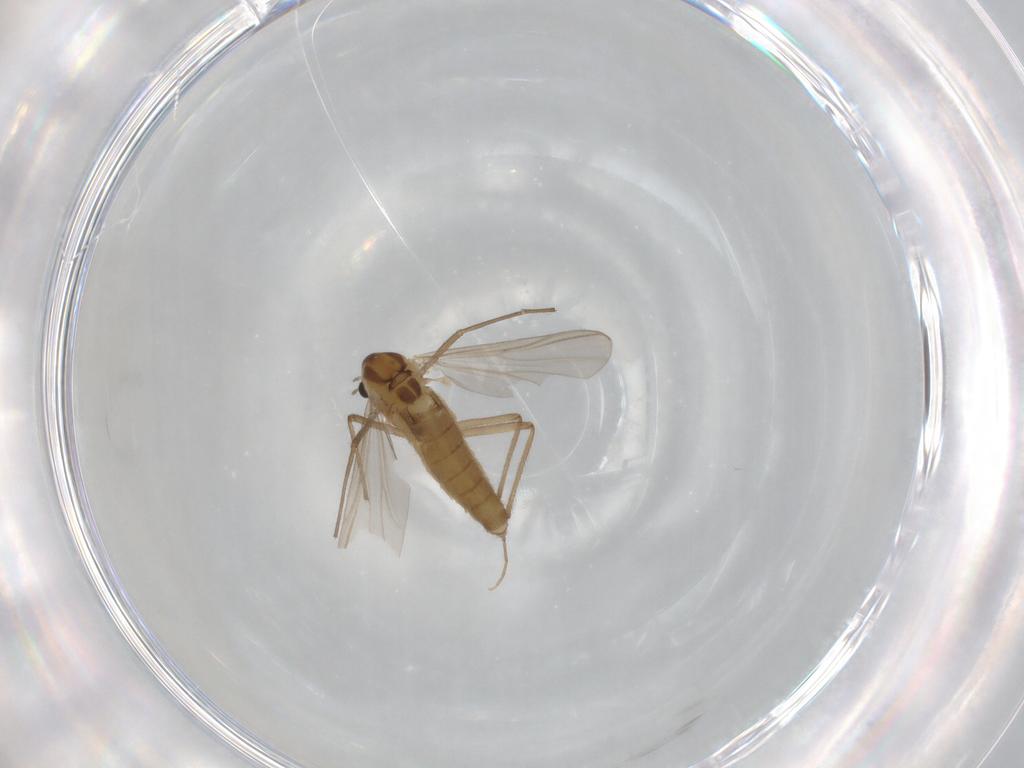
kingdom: Animalia
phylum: Arthropoda
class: Insecta
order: Diptera
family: Chironomidae
